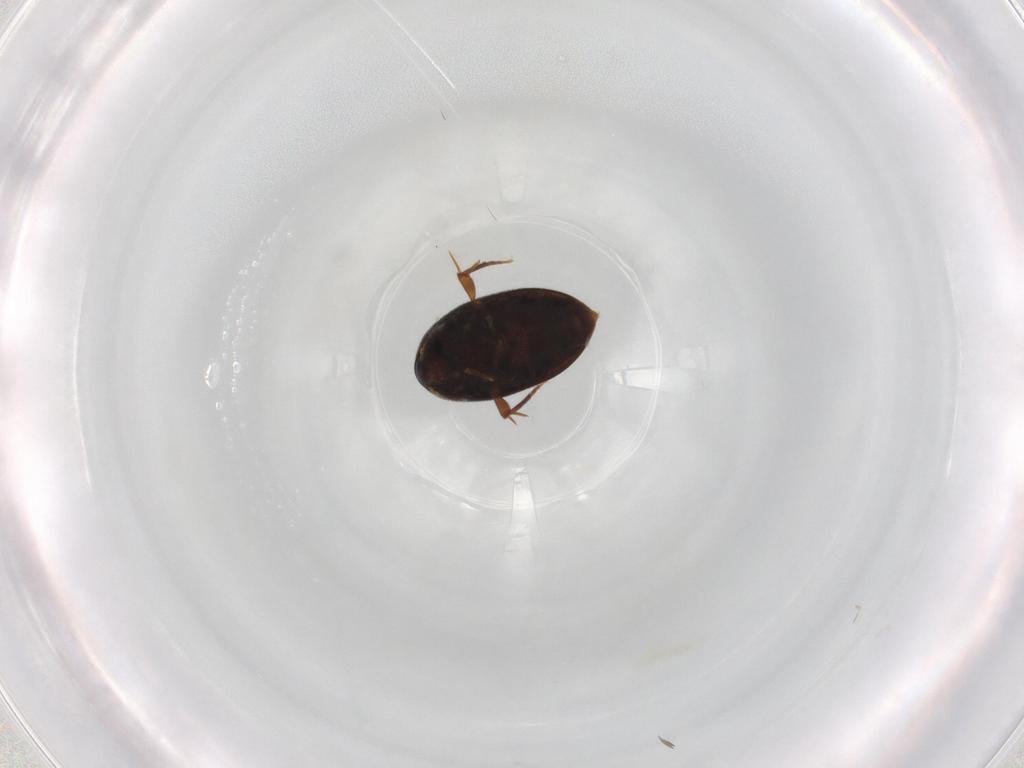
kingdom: Animalia
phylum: Arthropoda
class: Insecta
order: Coleoptera
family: Melandryidae
